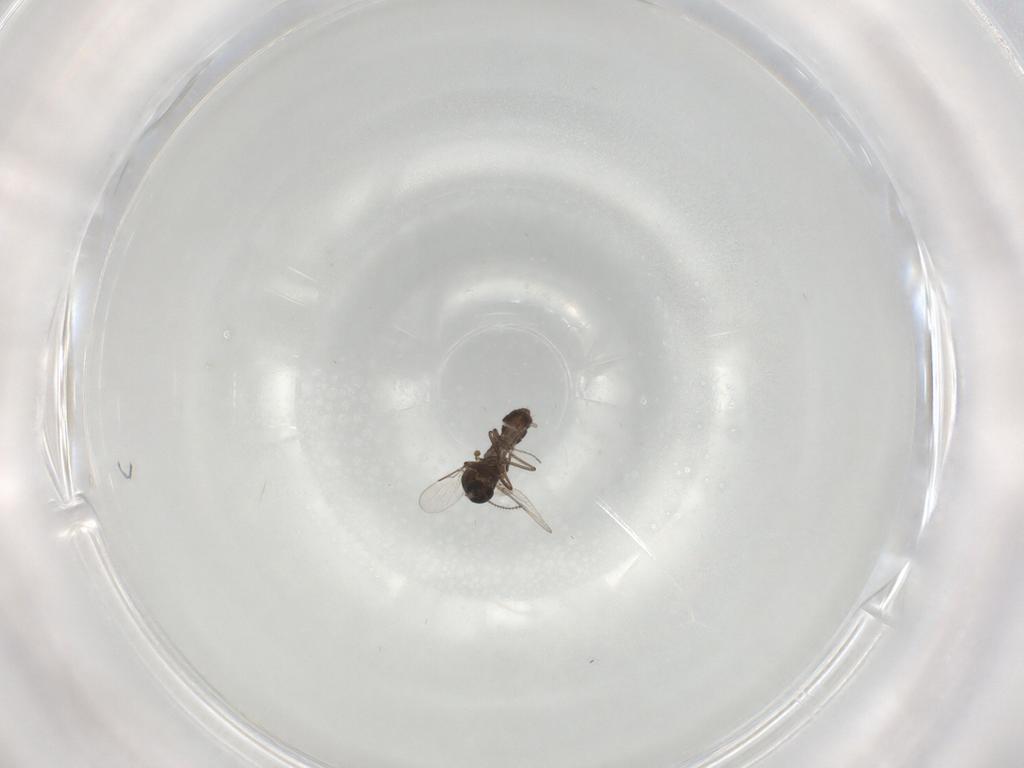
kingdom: Animalia
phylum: Arthropoda
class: Insecta
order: Diptera
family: Ceratopogonidae
